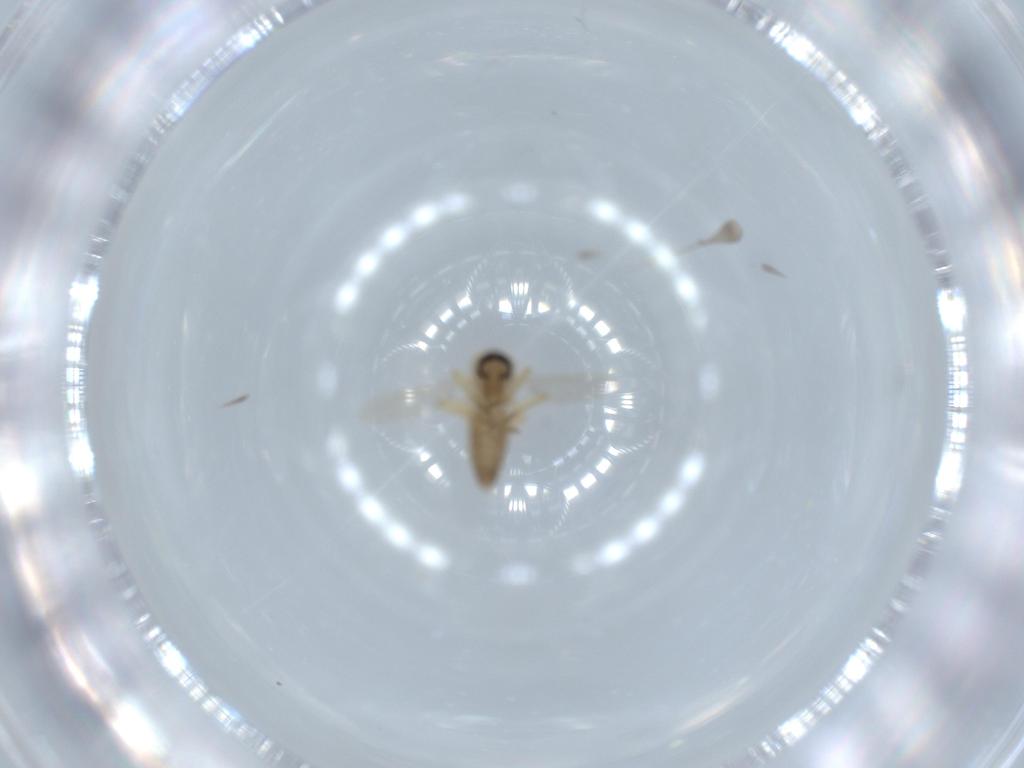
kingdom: Animalia
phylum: Arthropoda
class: Insecta
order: Diptera
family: Ceratopogonidae
